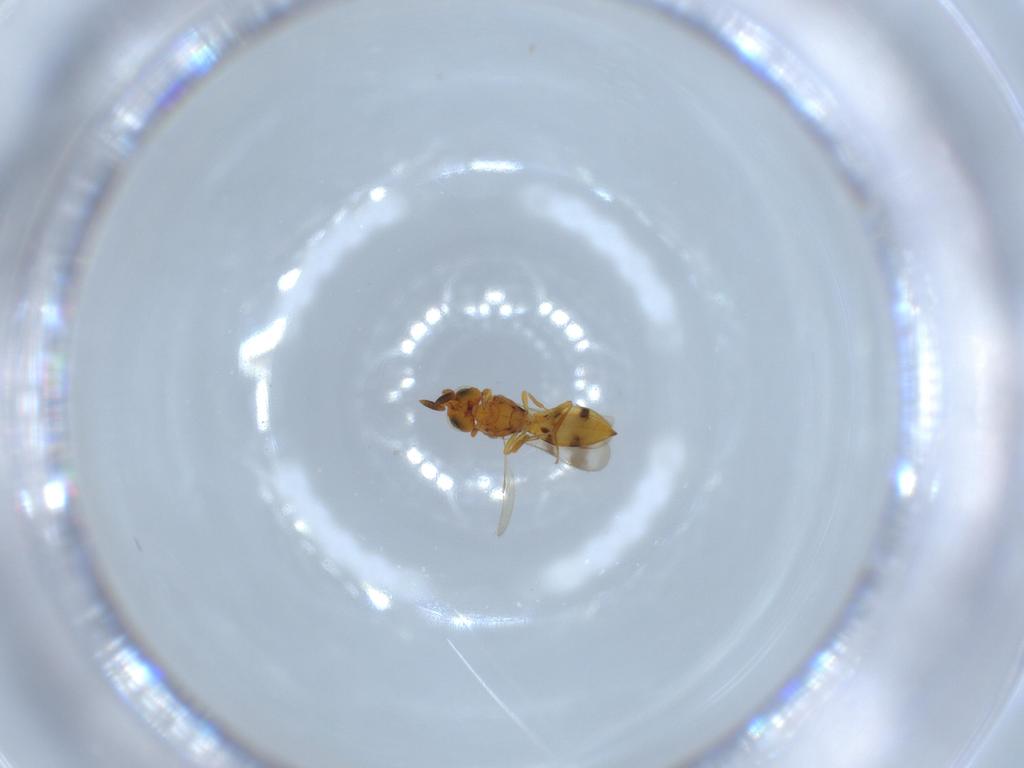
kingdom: Animalia
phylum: Arthropoda
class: Insecta
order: Hymenoptera
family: Scelionidae
